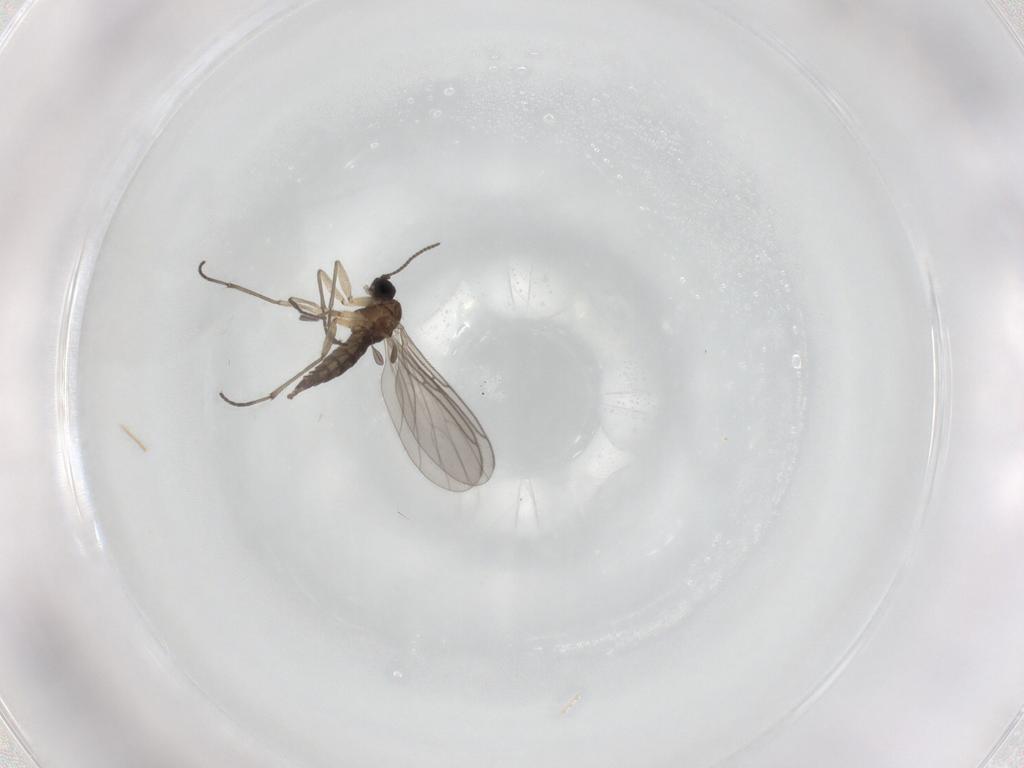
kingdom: Animalia
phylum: Arthropoda
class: Insecta
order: Diptera
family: Sciaridae
